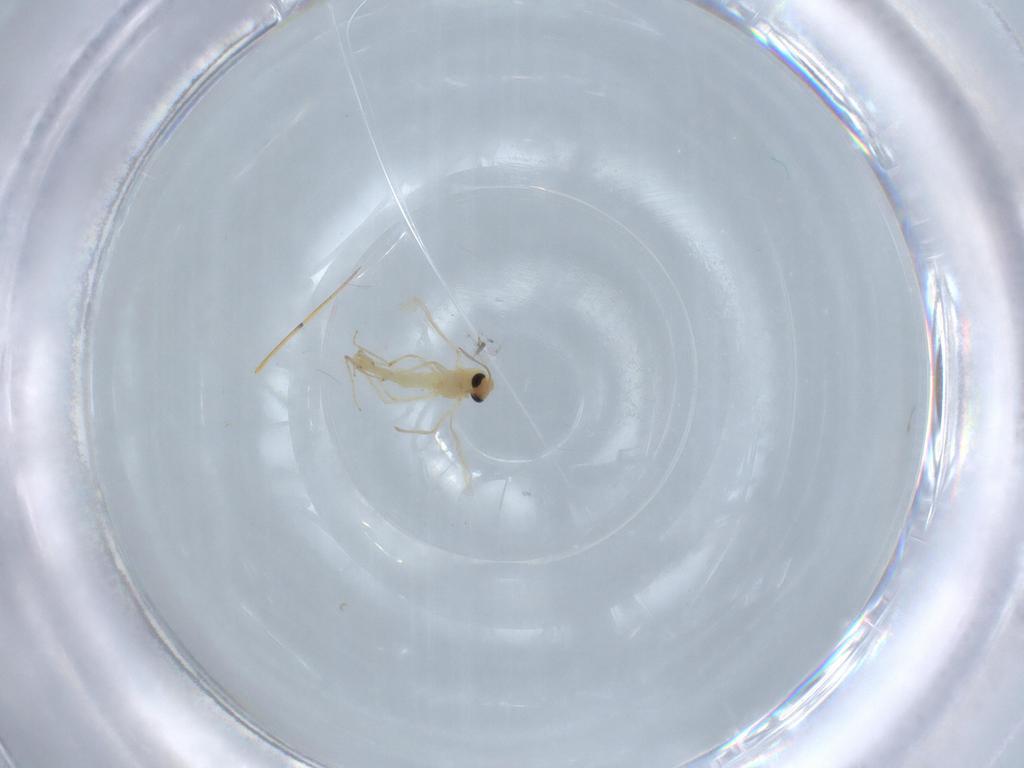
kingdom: Animalia
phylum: Arthropoda
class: Insecta
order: Diptera
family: Chironomidae
